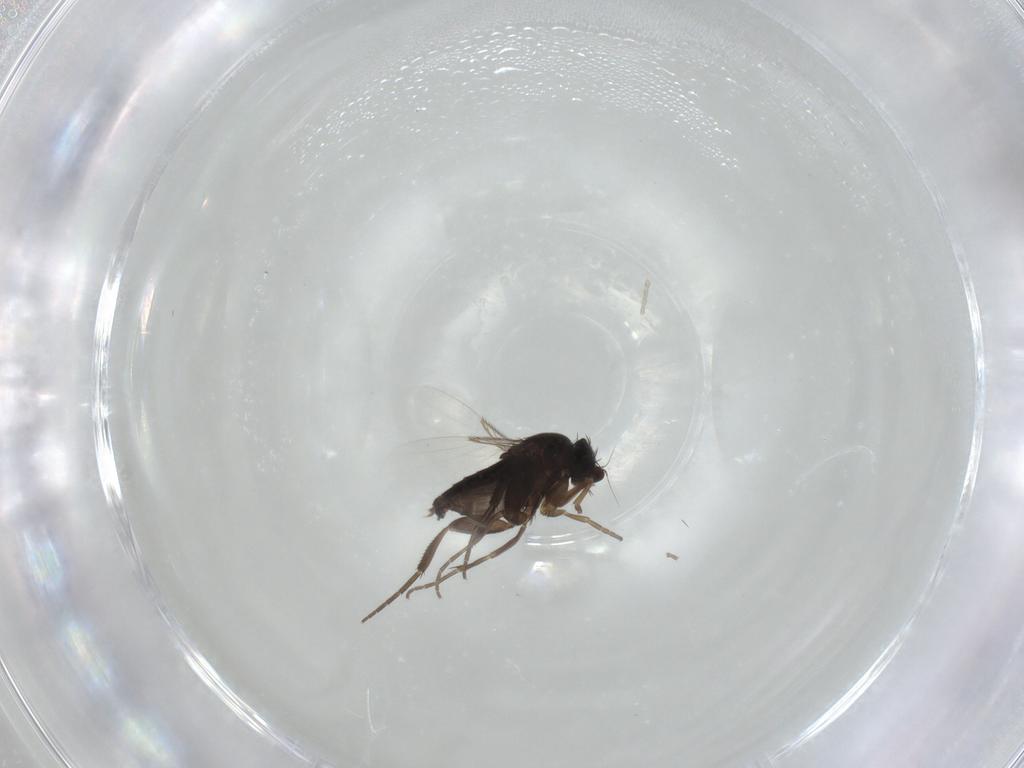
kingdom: Animalia
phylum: Arthropoda
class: Insecta
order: Diptera
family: Phoridae
